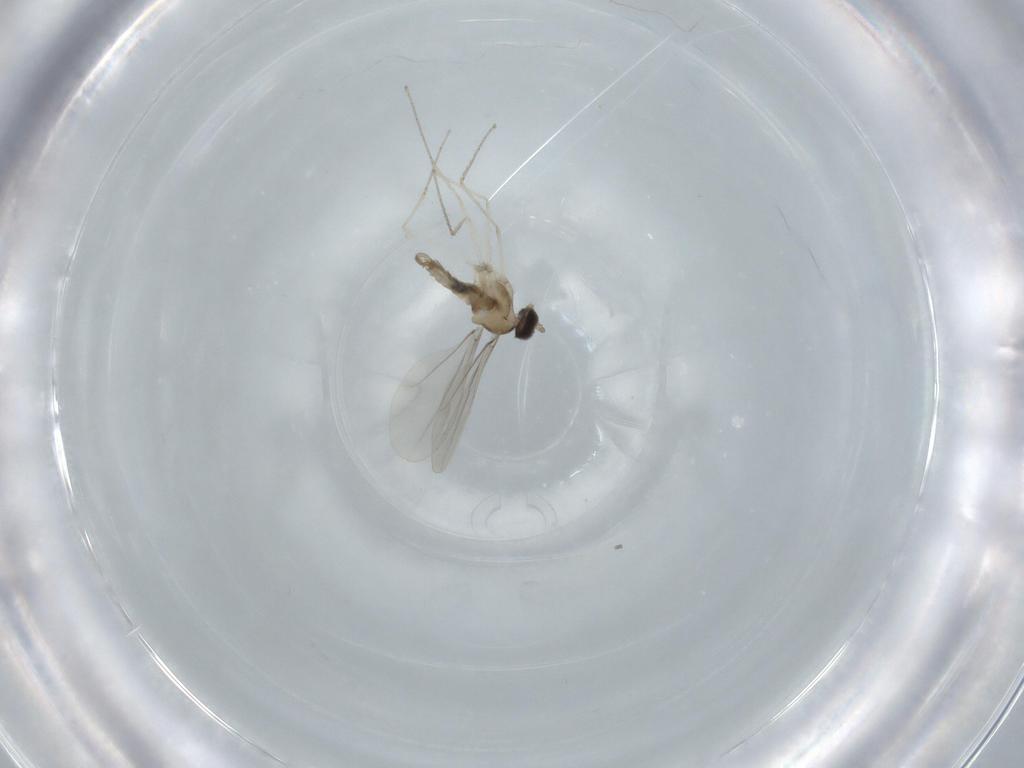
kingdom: Animalia
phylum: Arthropoda
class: Insecta
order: Diptera
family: Cecidomyiidae
